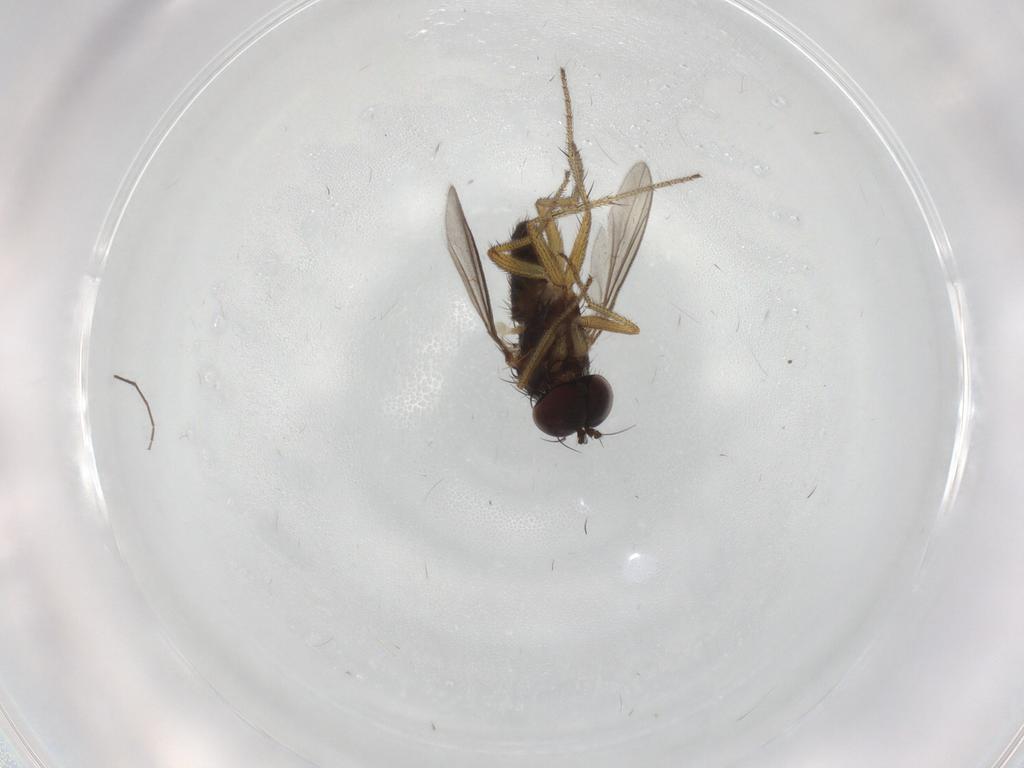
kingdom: Animalia
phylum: Arthropoda
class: Insecta
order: Diptera
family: Dolichopodidae
